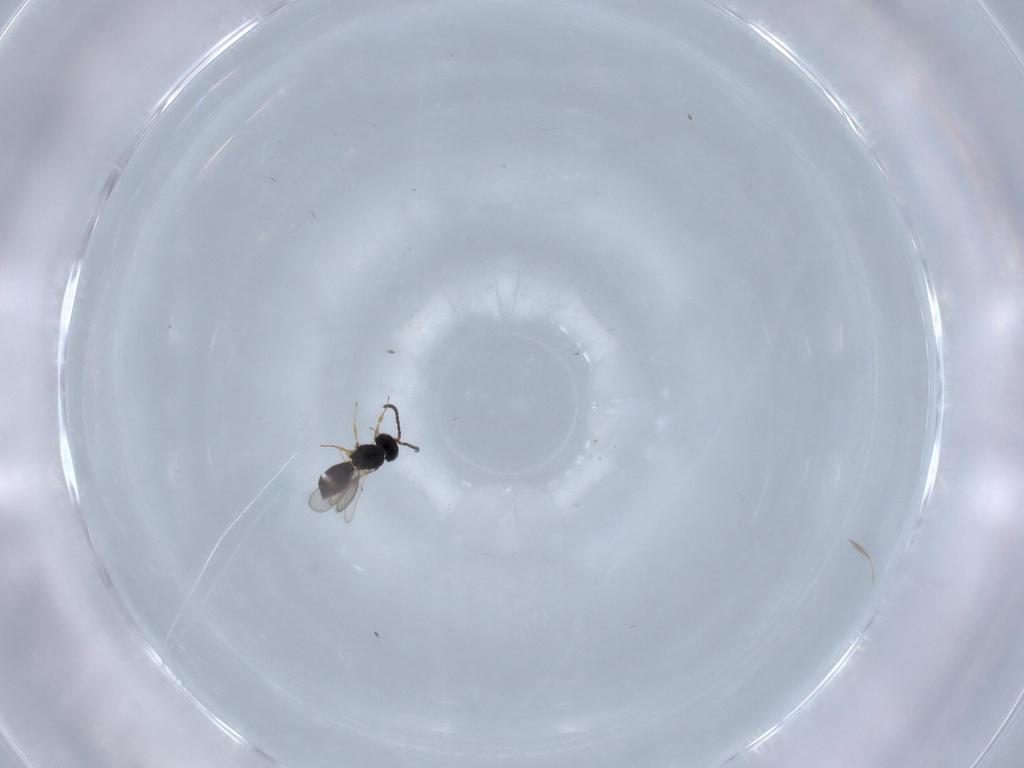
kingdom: Animalia
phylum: Arthropoda
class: Insecta
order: Hymenoptera
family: Scelionidae
